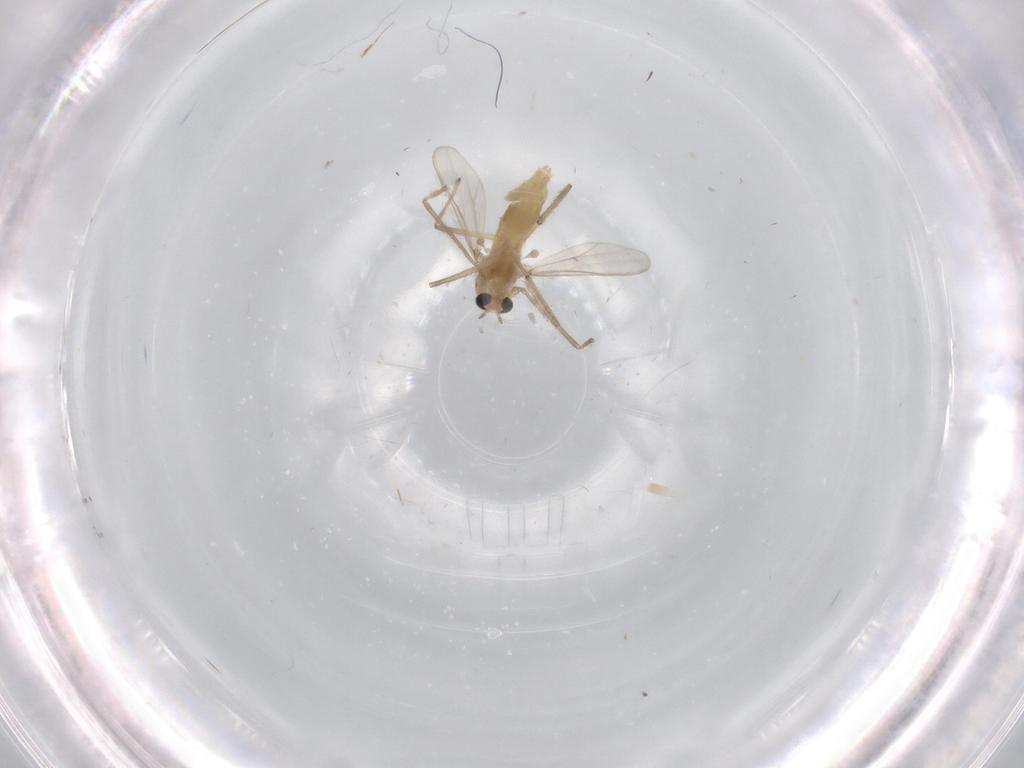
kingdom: Animalia
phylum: Arthropoda
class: Insecta
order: Diptera
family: Chironomidae
